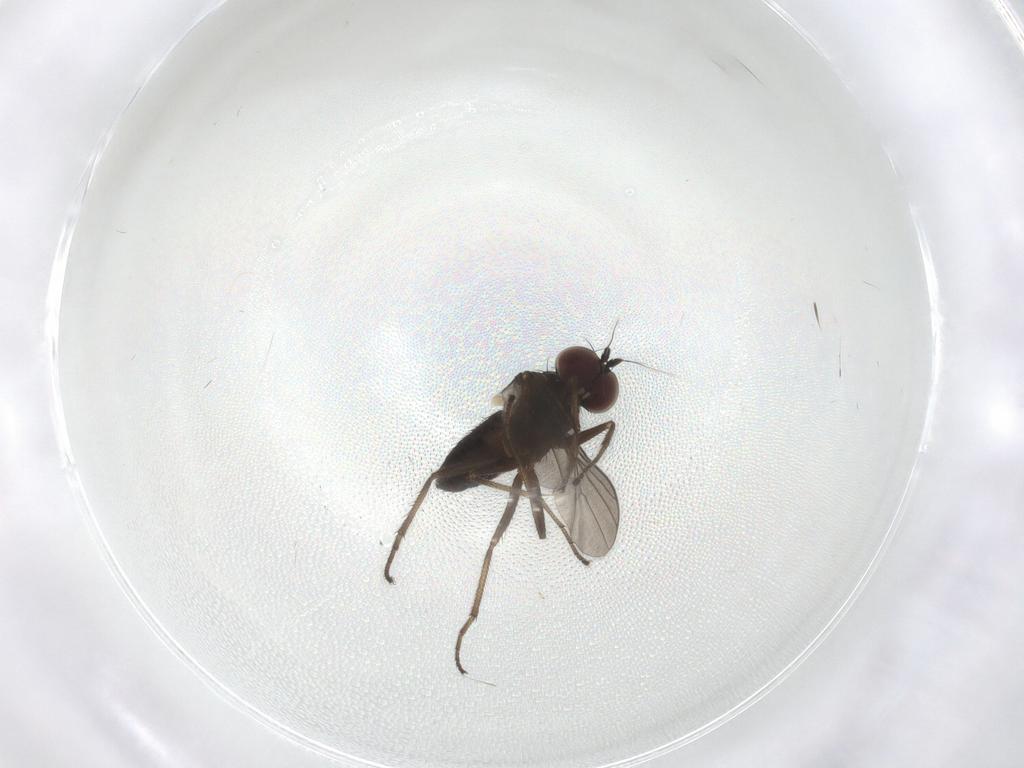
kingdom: Animalia
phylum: Arthropoda
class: Insecta
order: Diptera
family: Dolichopodidae
